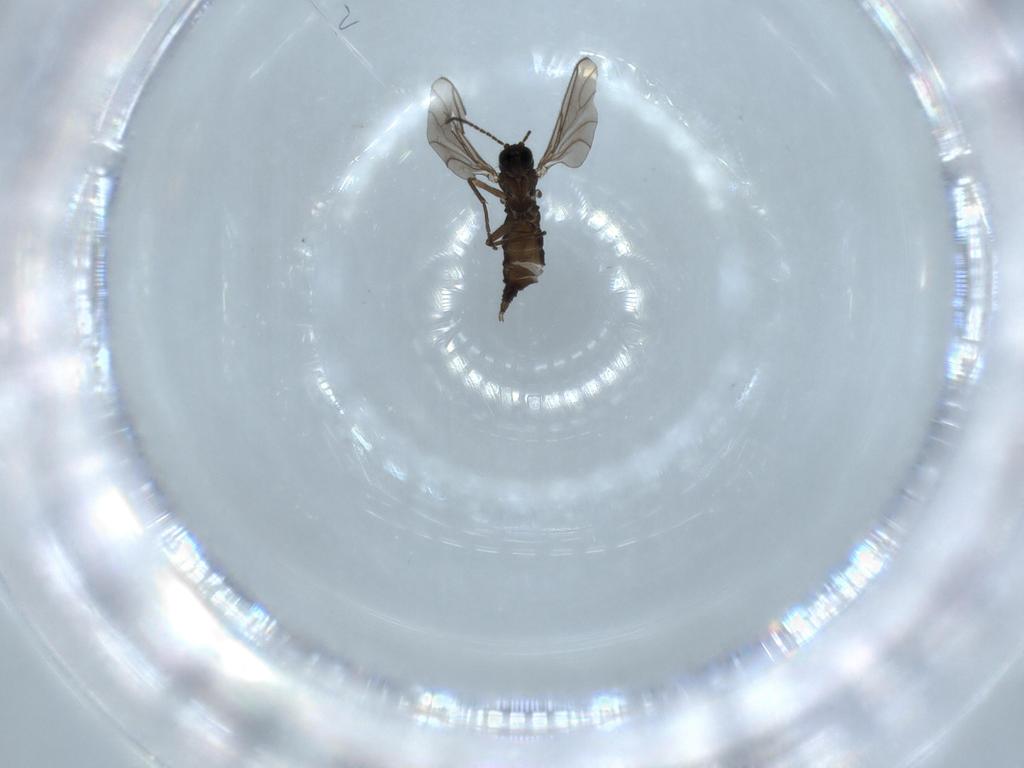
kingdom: Animalia
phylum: Arthropoda
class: Insecta
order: Diptera
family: Sciaridae
